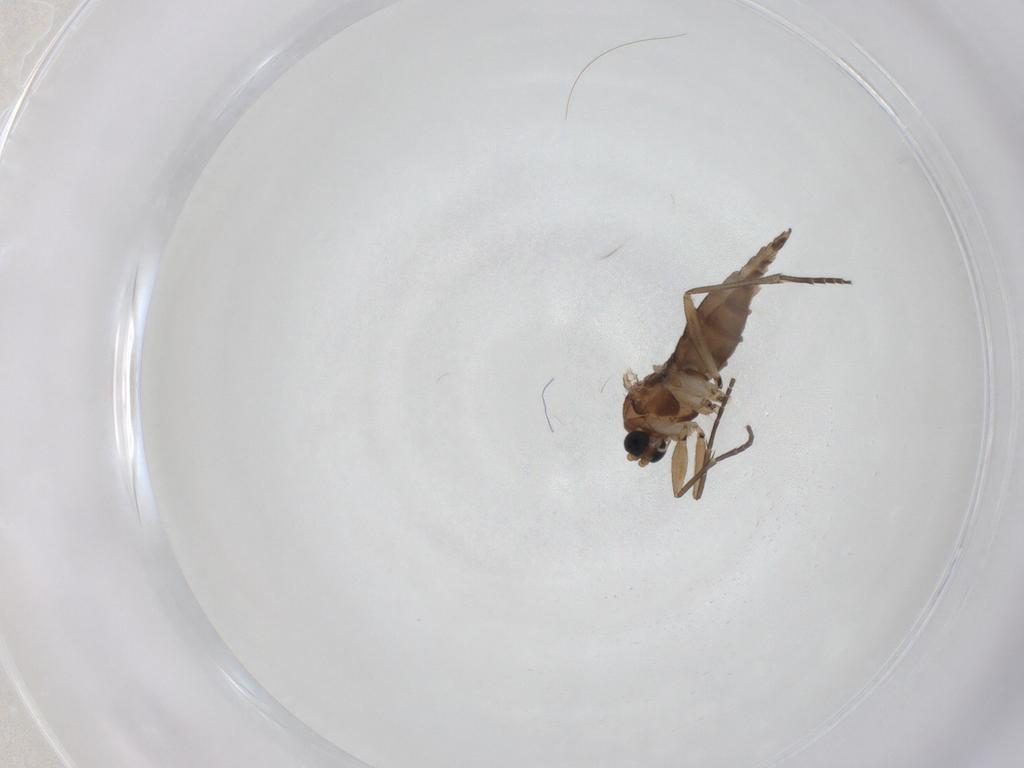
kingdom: Animalia
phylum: Arthropoda
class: Insecta
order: Diptera
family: Sciaridae
